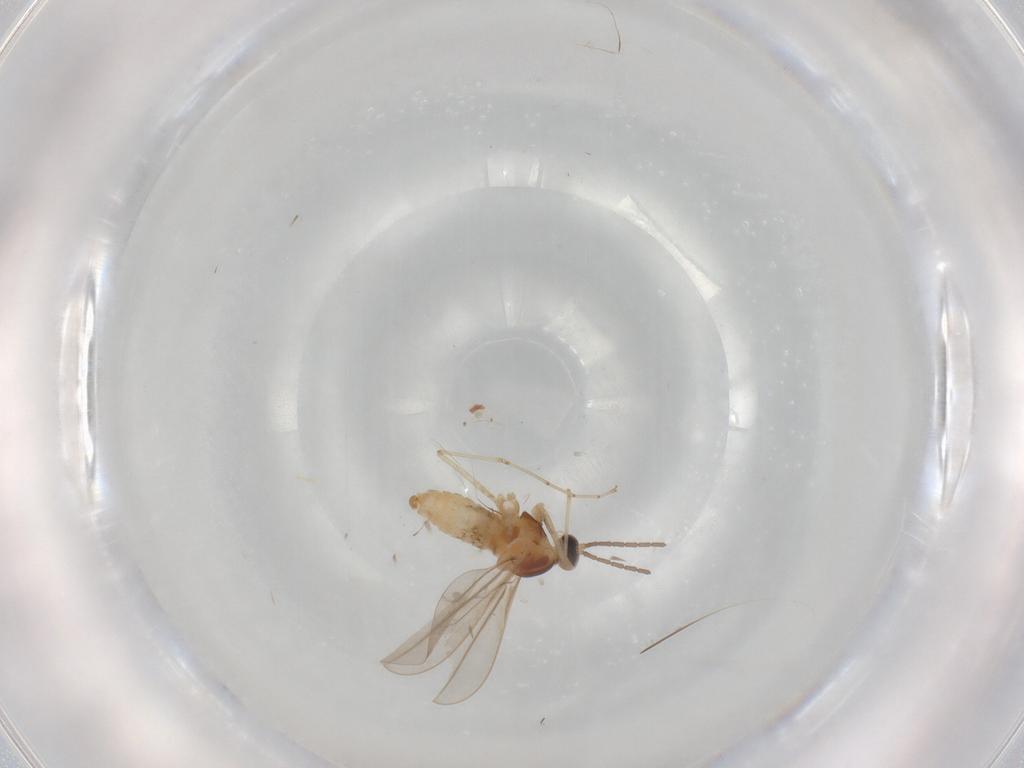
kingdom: Animalia
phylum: Arthropoda
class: Insecta
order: Diptera
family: Cecidomyiidae
